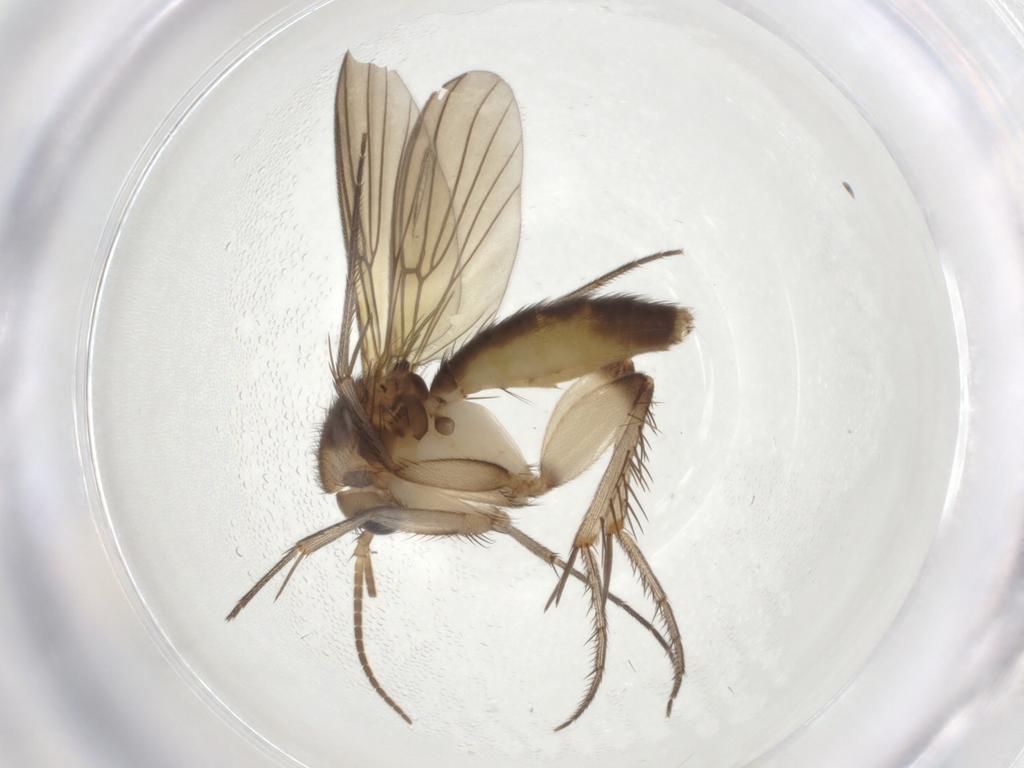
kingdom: Animalia
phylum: Arthropoda
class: Insecta
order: Diptera
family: Mycetophilidae
